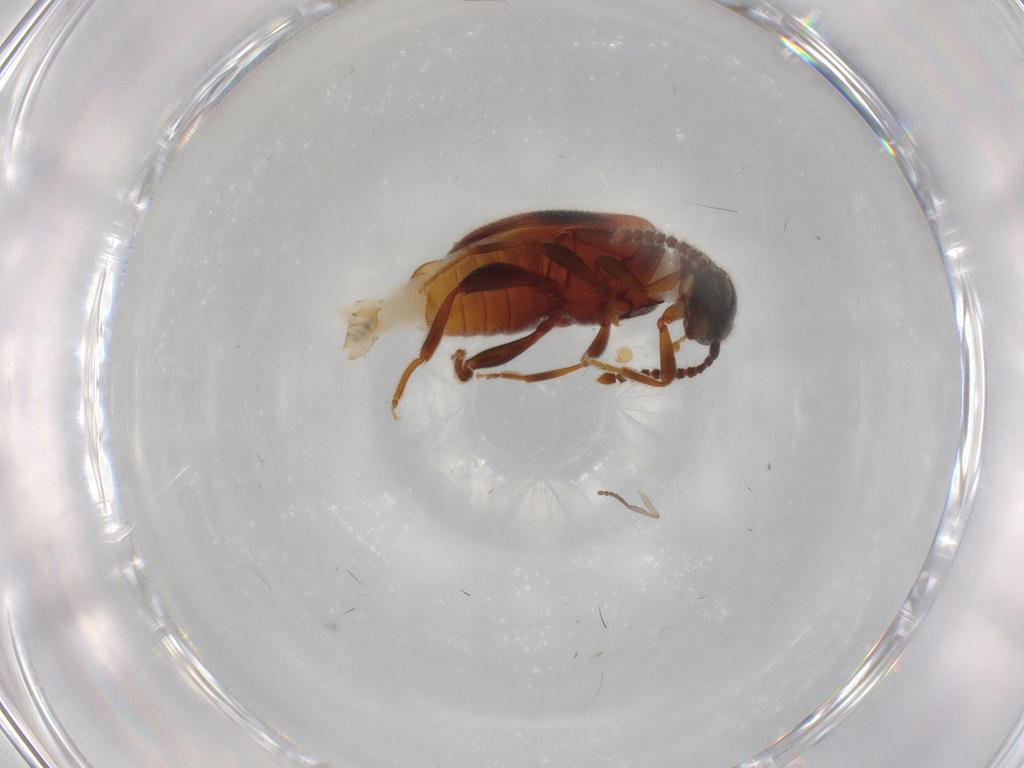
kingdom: Animalia
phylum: Arthropoda
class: Insecta
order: Coleoptera
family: Aderidae
